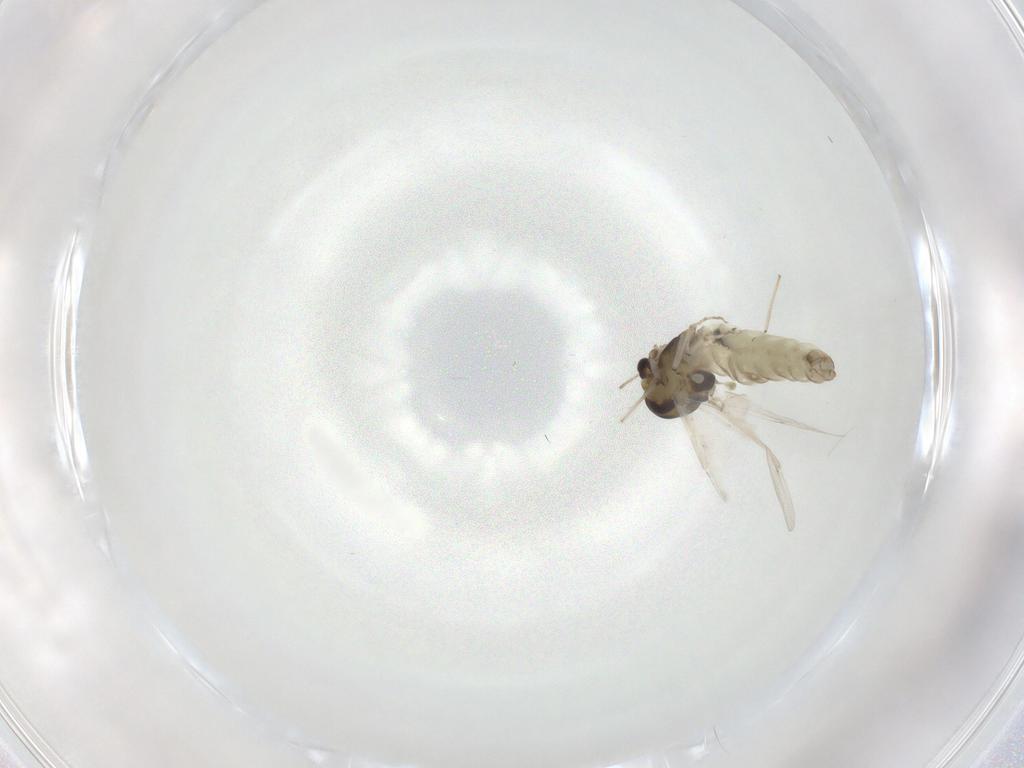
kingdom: Animalia
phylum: Arthropoda
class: Insecta
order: Diptera
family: Chironomidae
